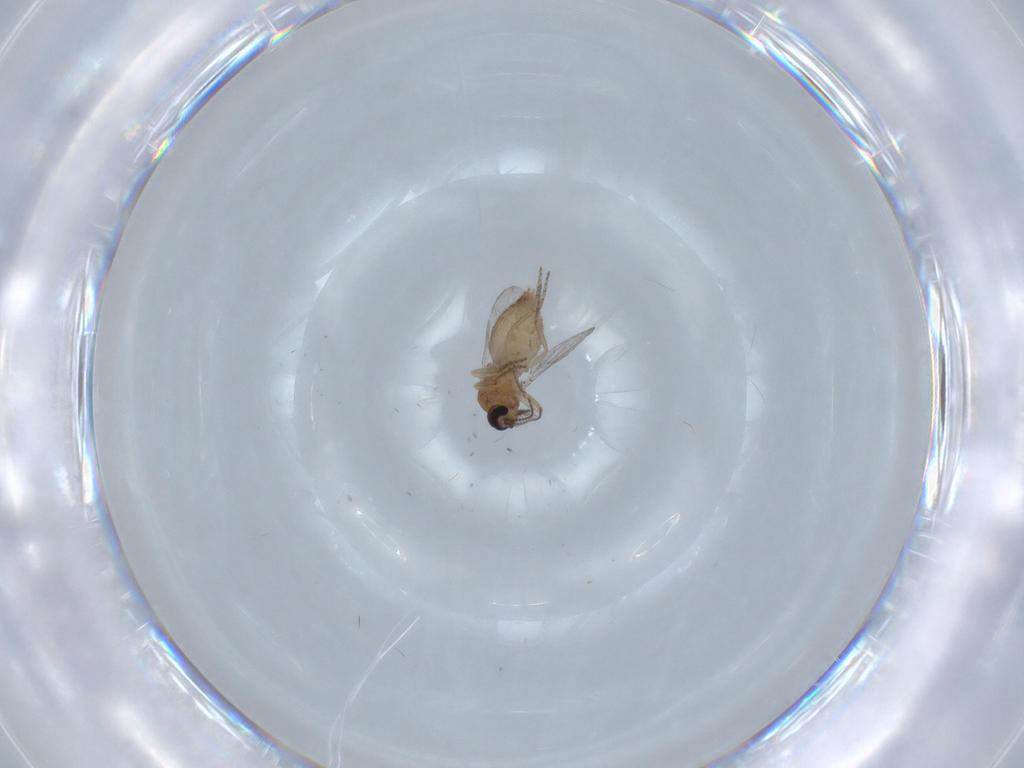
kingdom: Animalia
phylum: Arthropoda
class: Insecta
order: Diptera
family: Ceratopogonidae
